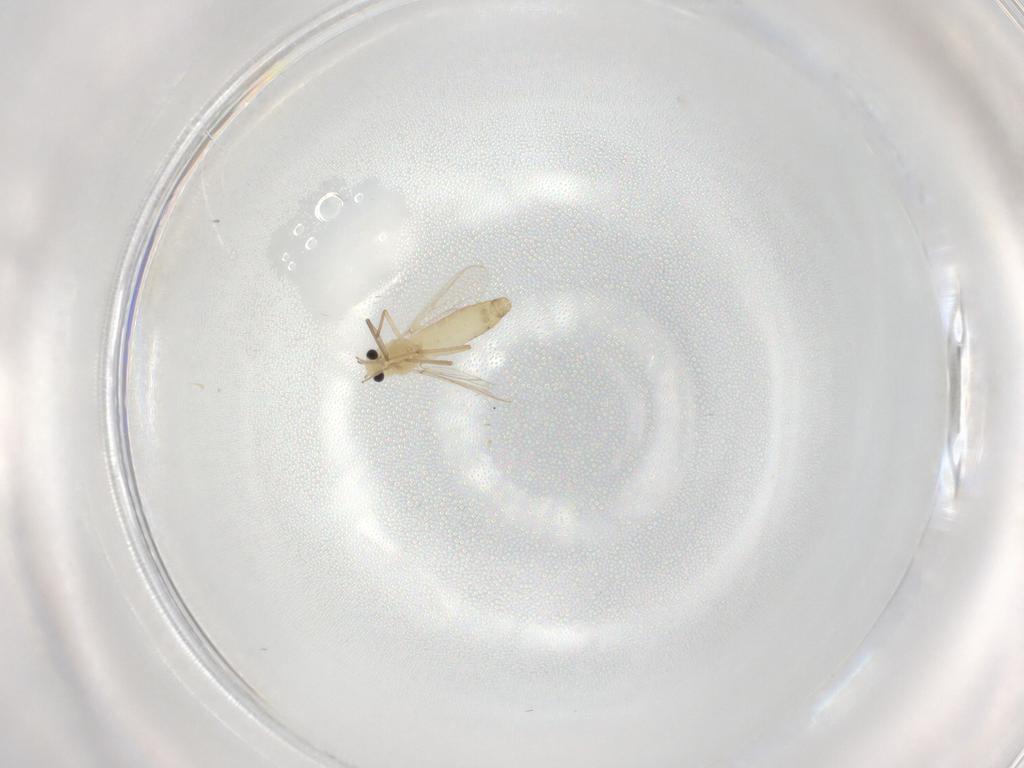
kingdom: Animalia
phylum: Arthropoda
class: Insecta
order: Diptera
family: Chironomidae
